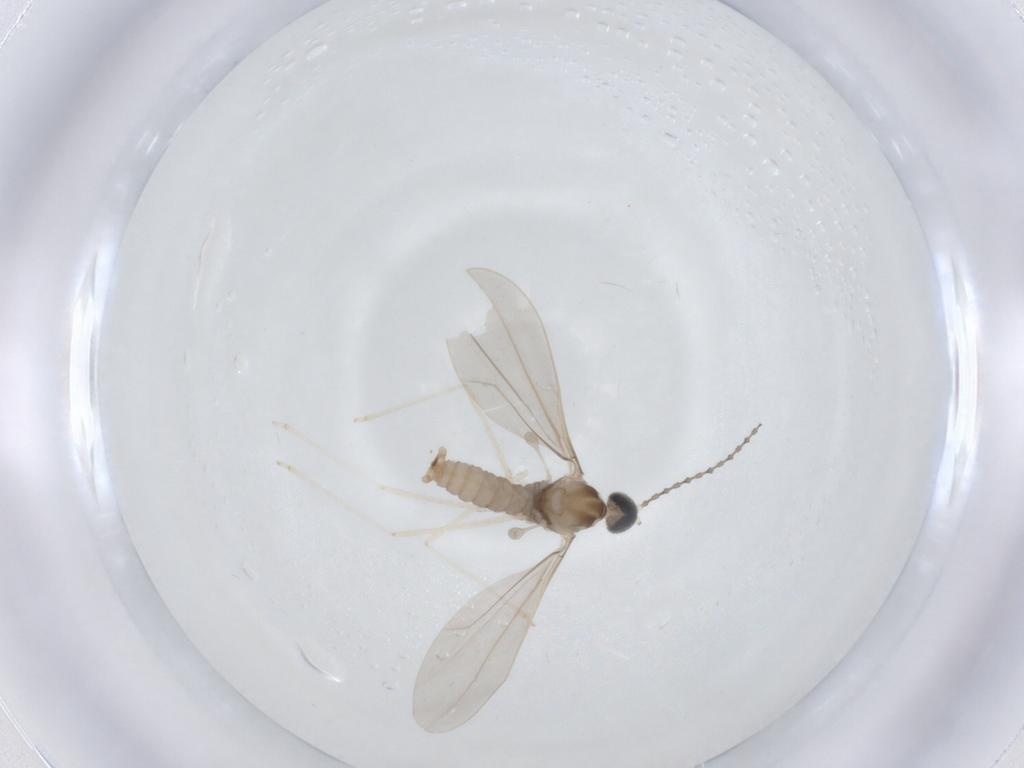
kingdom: Animalia
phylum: Arthropoda
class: Insecta
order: Diptera
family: Cecidomyiidae
